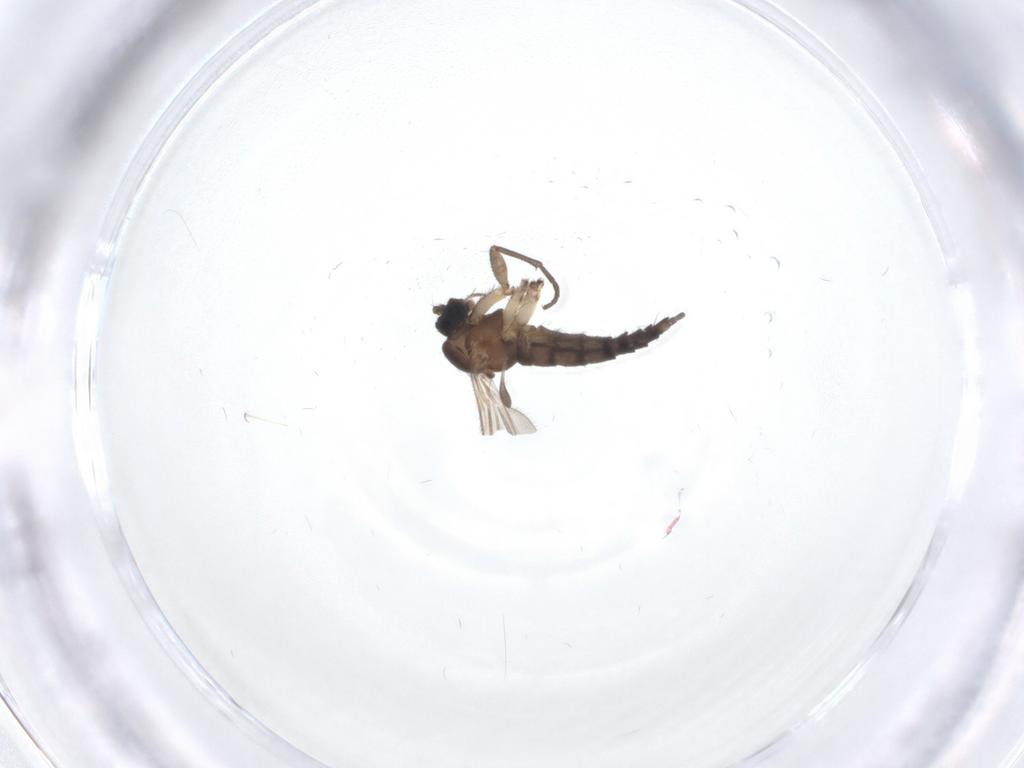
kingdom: Animalia
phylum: Arthropoda
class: Insecta
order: Diptera
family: Sciaridae
